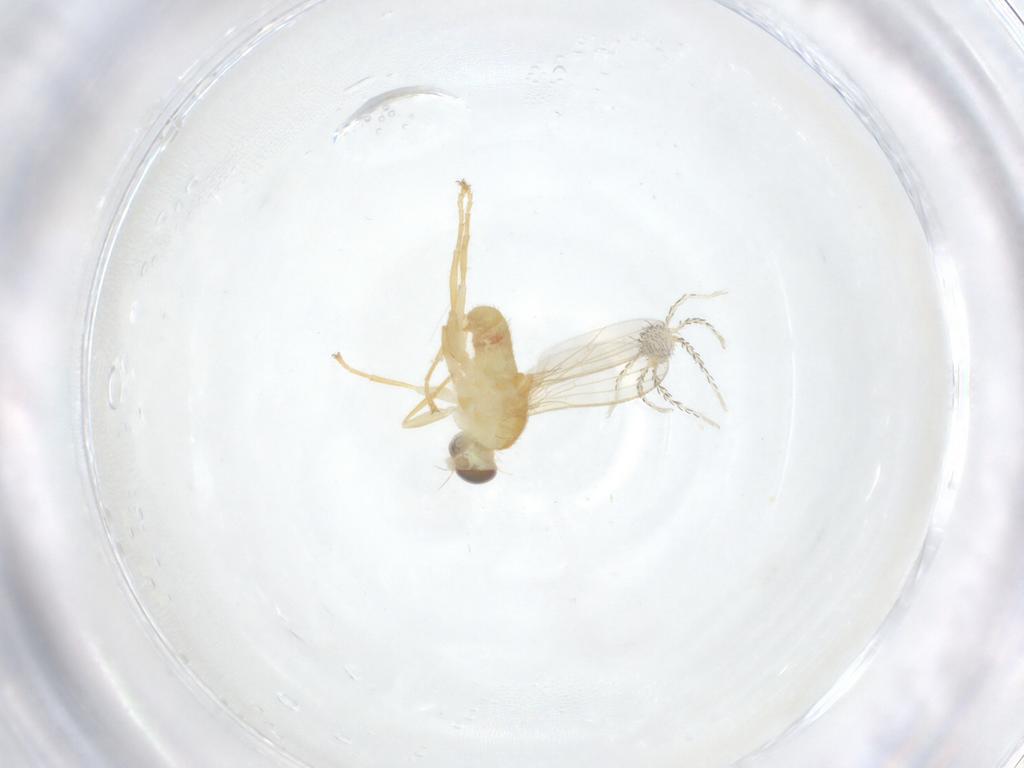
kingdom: Animalia
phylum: Arthropoda
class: Insecta
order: Diptera
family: Chyromyidae
